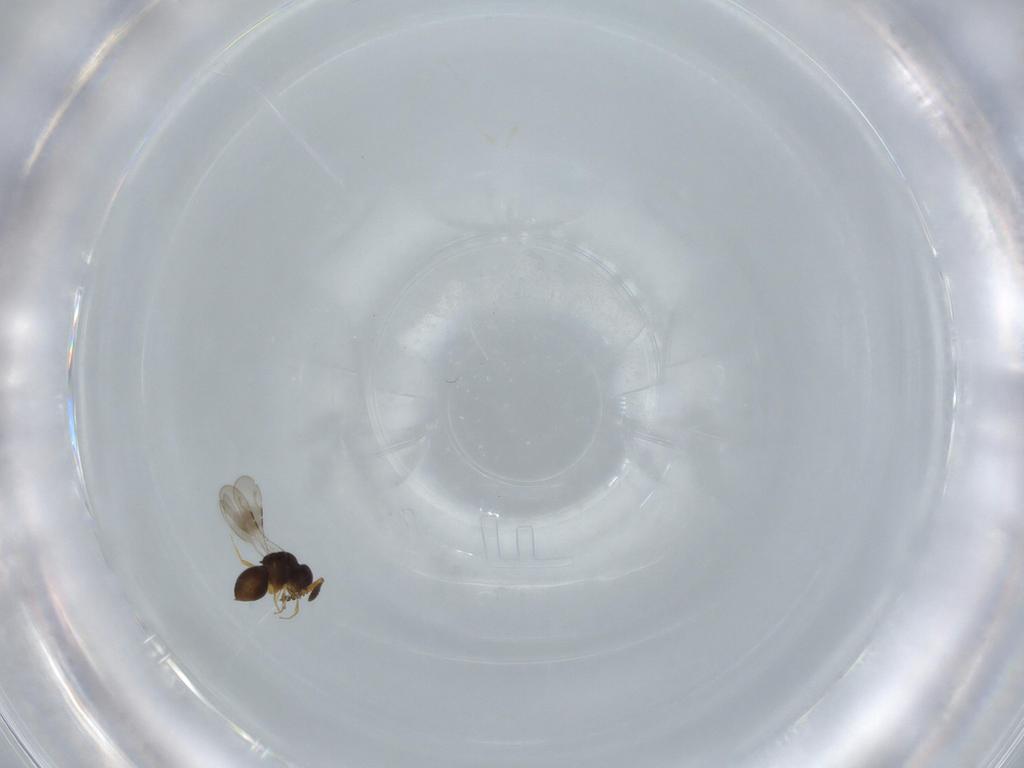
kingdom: Animalia
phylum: Arthropoda
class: Insecta
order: Hymenoptera
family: Ceraphronidae
